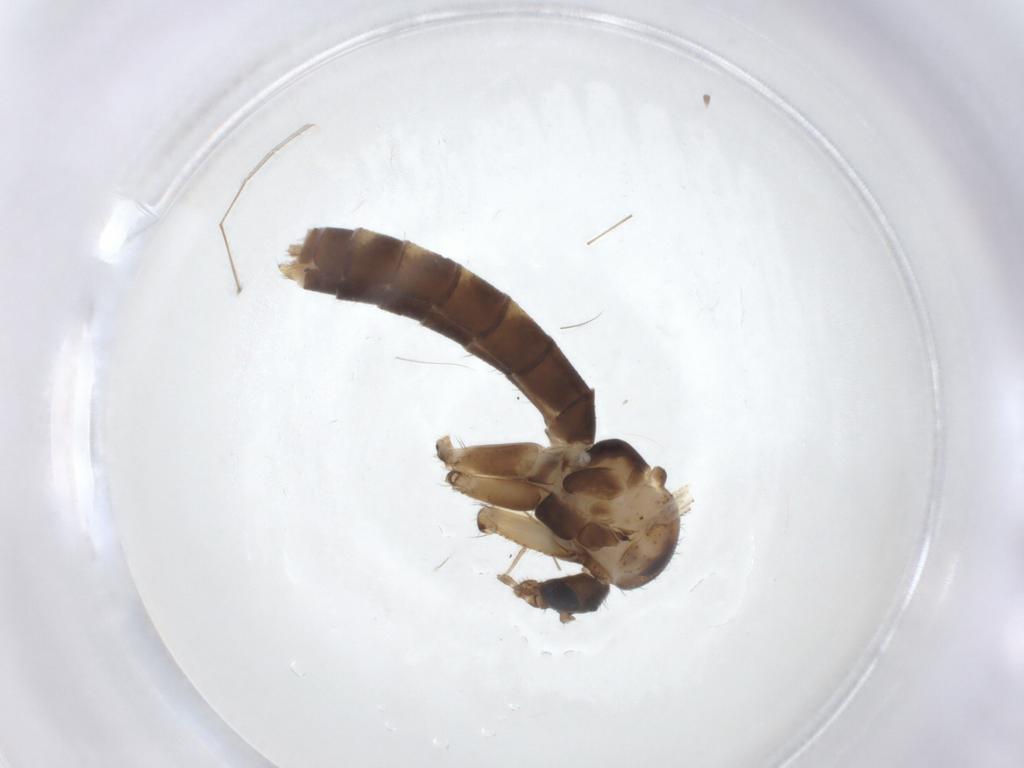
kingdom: Animalia
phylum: Arthropoda
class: Insecta
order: Diptera
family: Mycetophilidae
